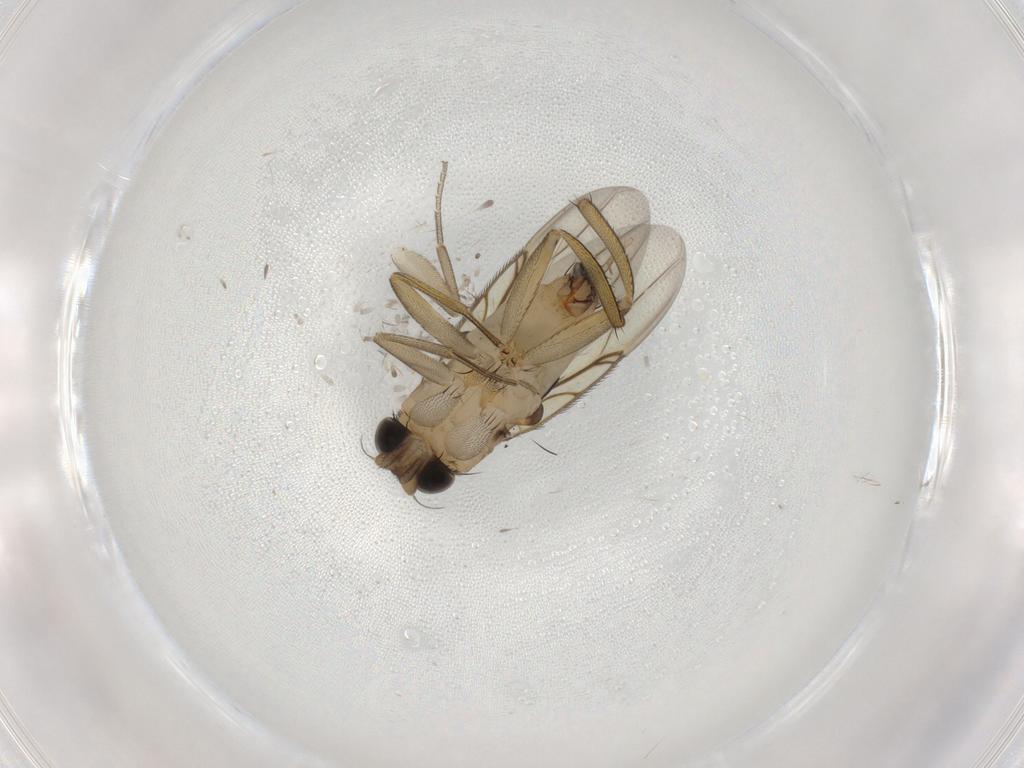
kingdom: Animalia
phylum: Arthropoda
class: Insecta
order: Diptera
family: Phoridae
